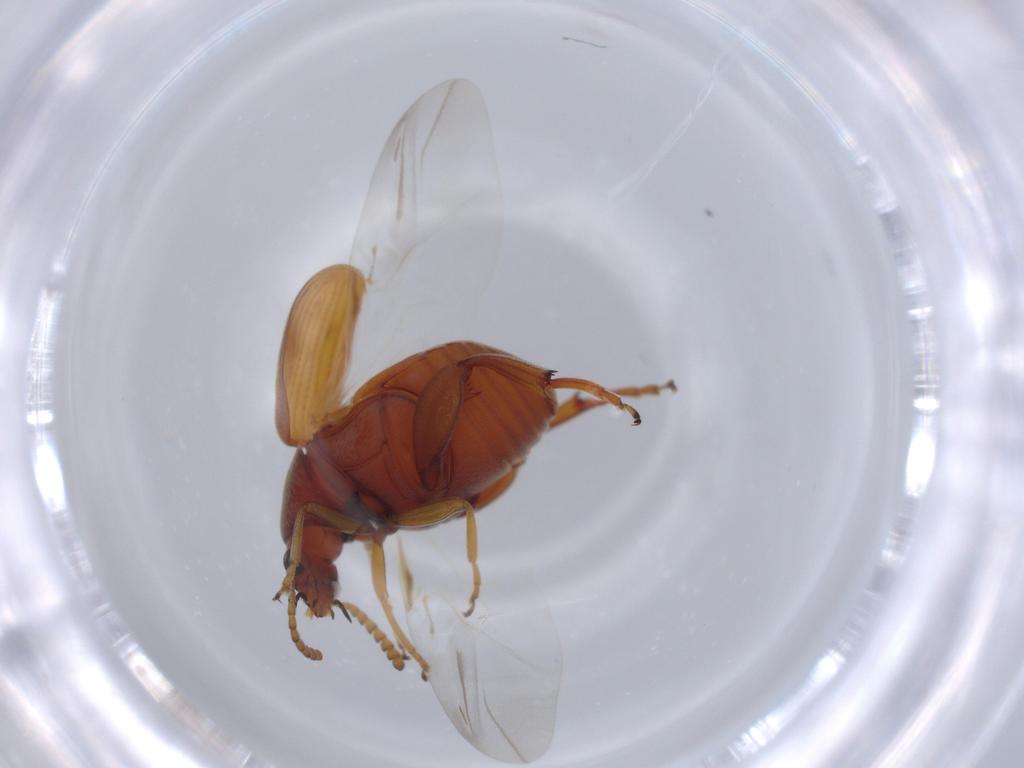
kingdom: Animalia
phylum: Arthropoda
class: Insecta
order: Coleoptera
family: Chrysomelidae
